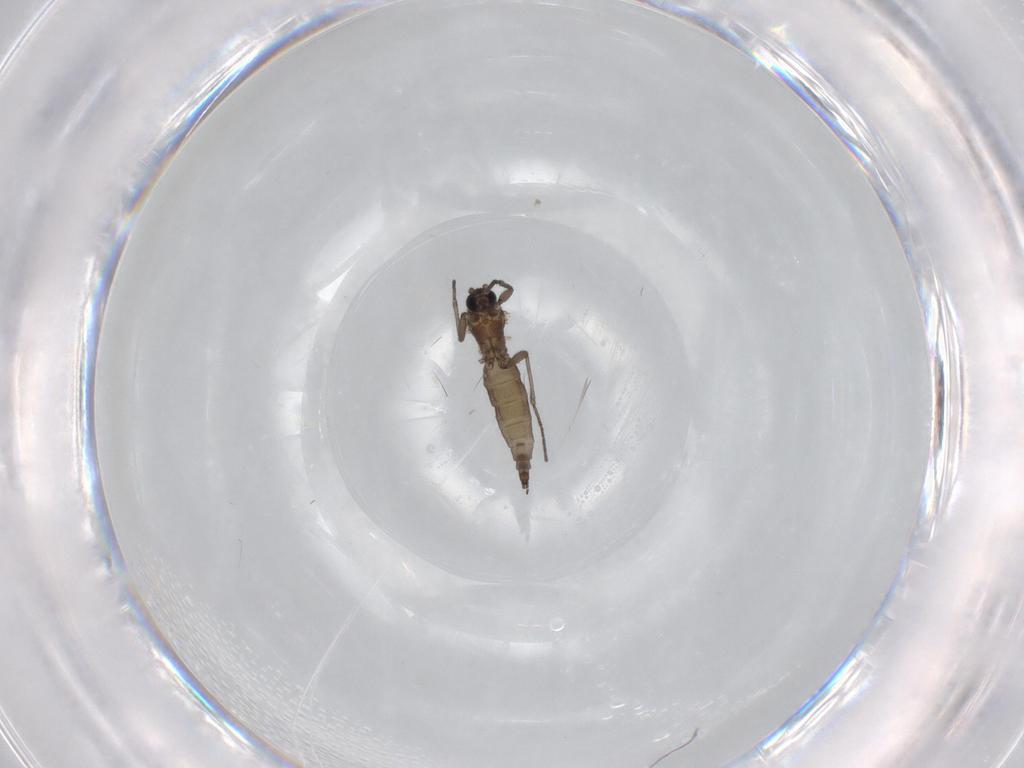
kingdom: Animalia
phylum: Arthropoda
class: Insecta
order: Diptera
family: Sciaridae
